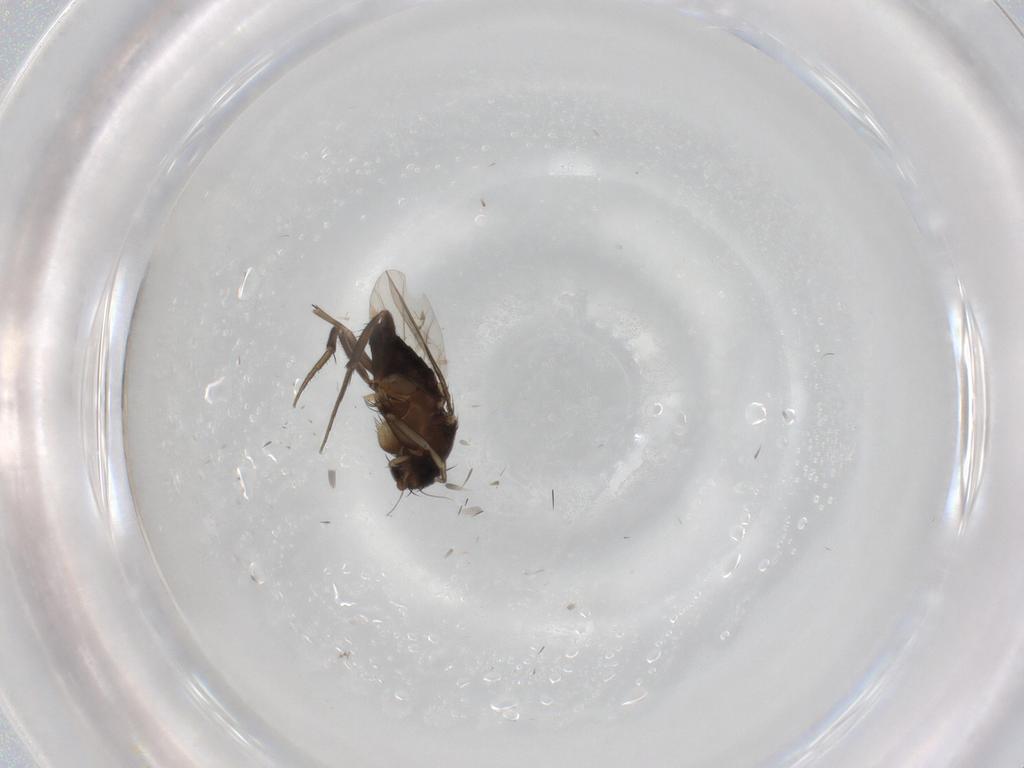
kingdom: Animalia
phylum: Arthropoda
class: Insecta
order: Diptera
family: Phoridae
